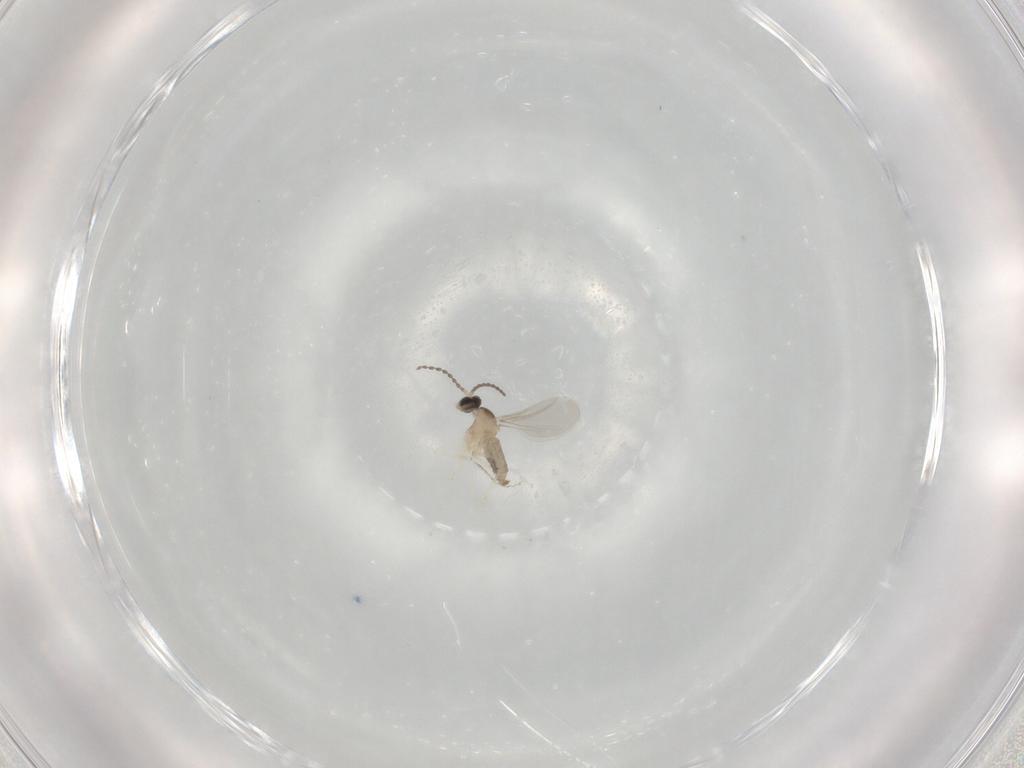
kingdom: Animalia
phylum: Arthropoda
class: Insecta
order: Diptera
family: Cecidomyiidae
